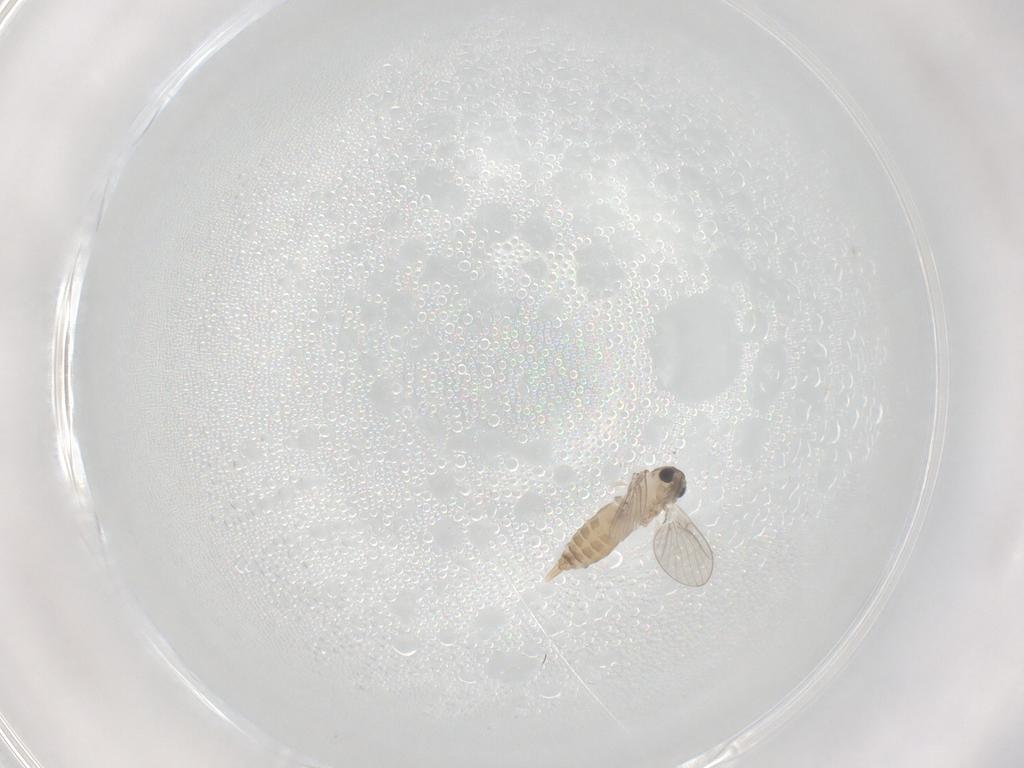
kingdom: Animalia
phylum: Arthropoda
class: Insecta
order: Diptera
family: Psychodidae
